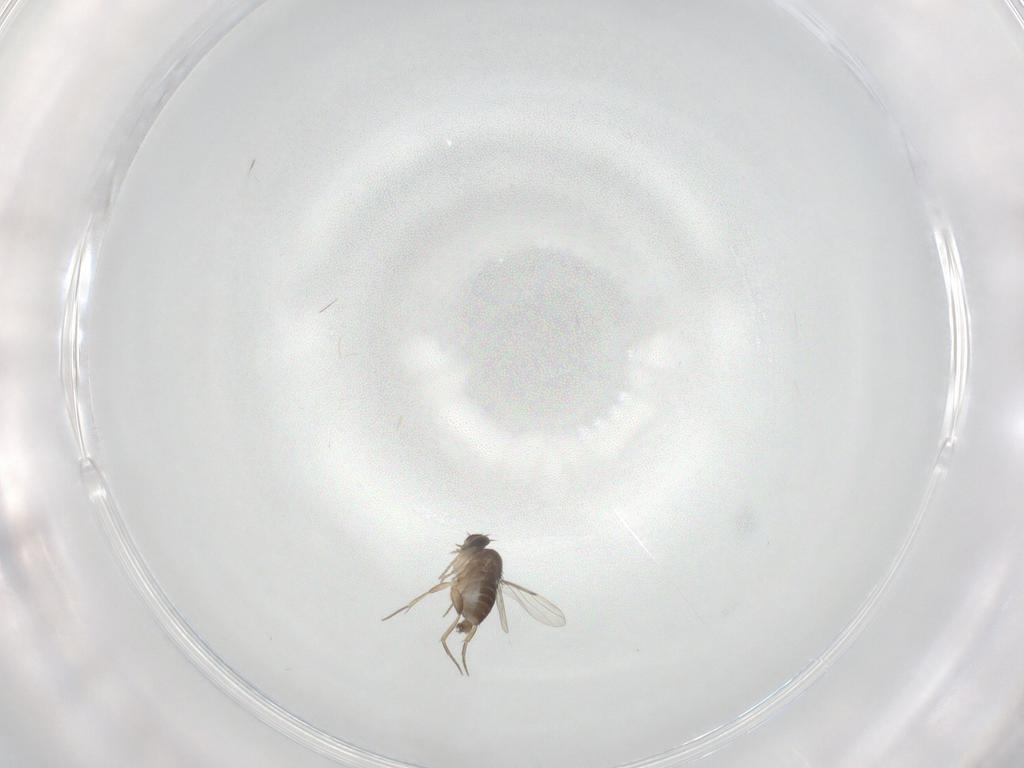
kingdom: Animalia
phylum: Arthropoda
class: Insecta
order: Diptera
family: Phoridae
